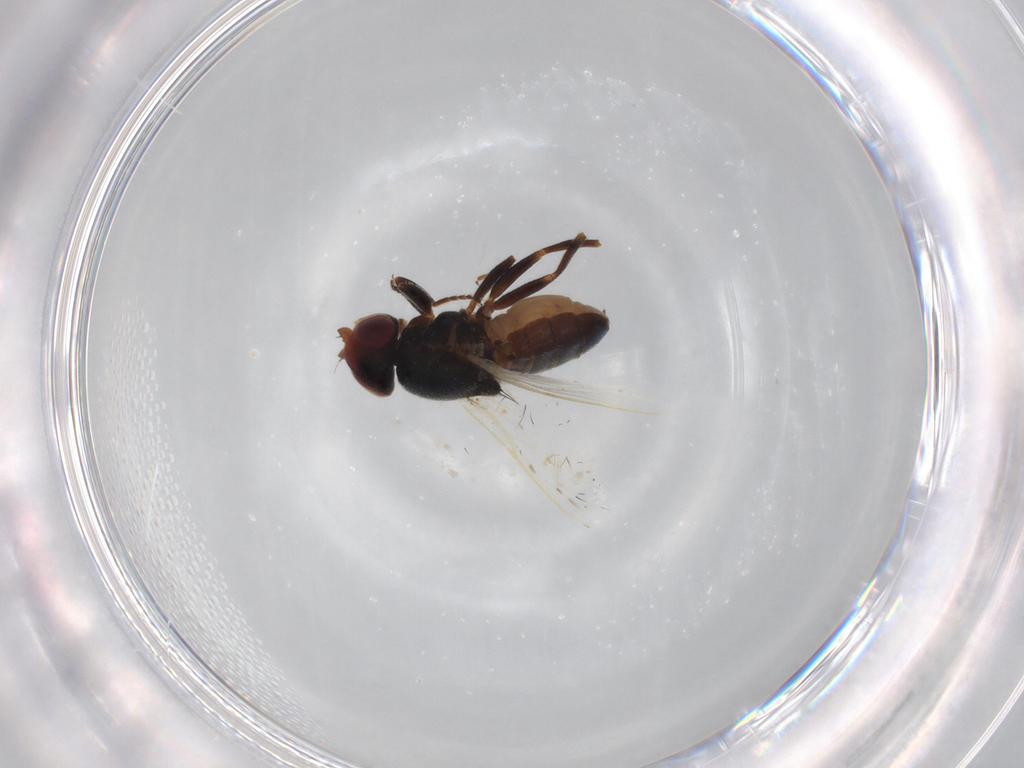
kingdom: Animalia
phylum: Arthropoda
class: Insecta
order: Diptera
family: Chloropidae
